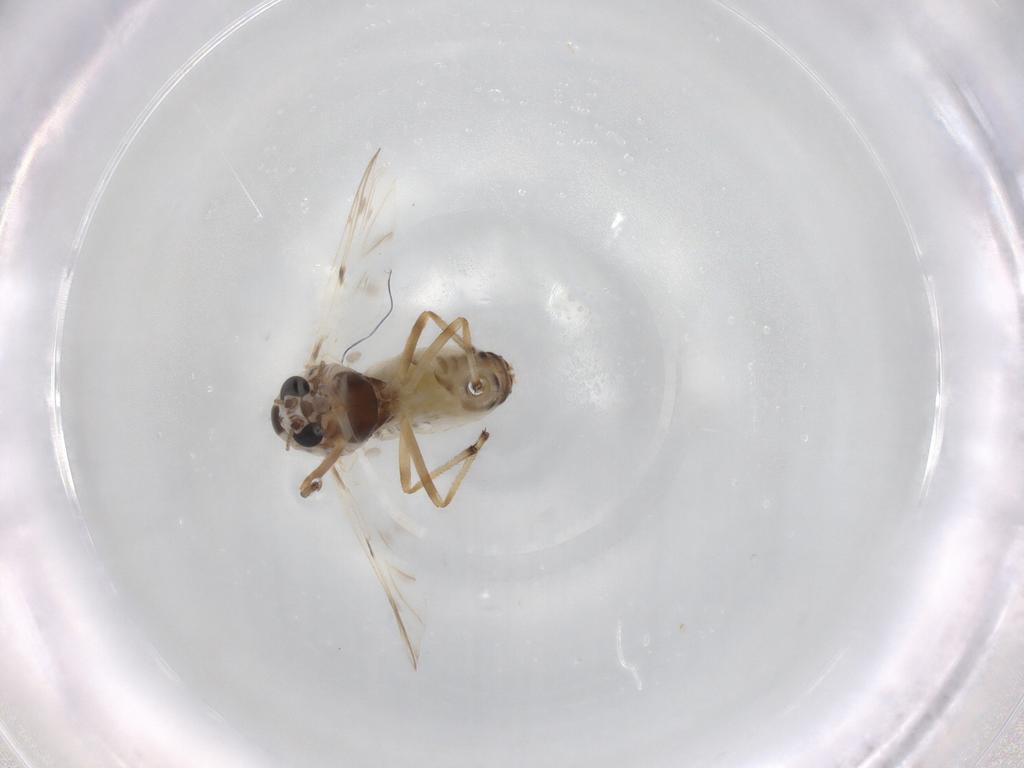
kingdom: Animalia
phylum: Arthropoda
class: Insecta
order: Diptera
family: Chironomidae
